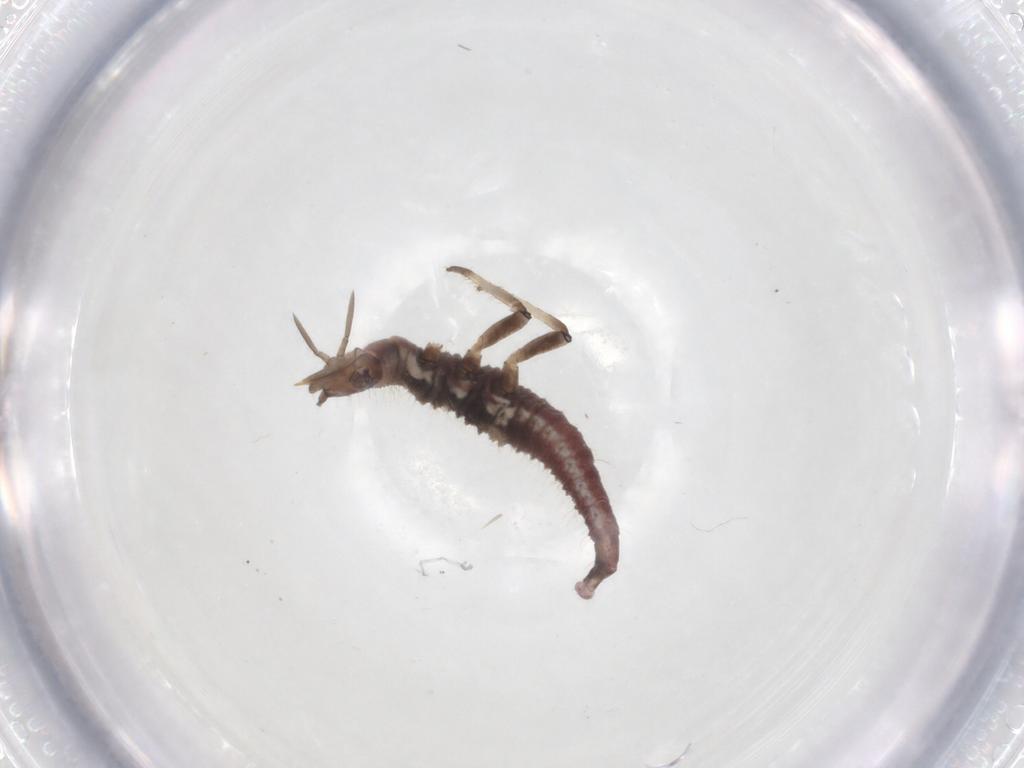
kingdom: Animalia
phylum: Arthropoda
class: Insecta
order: Neuroptera
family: Hemerobiidae
